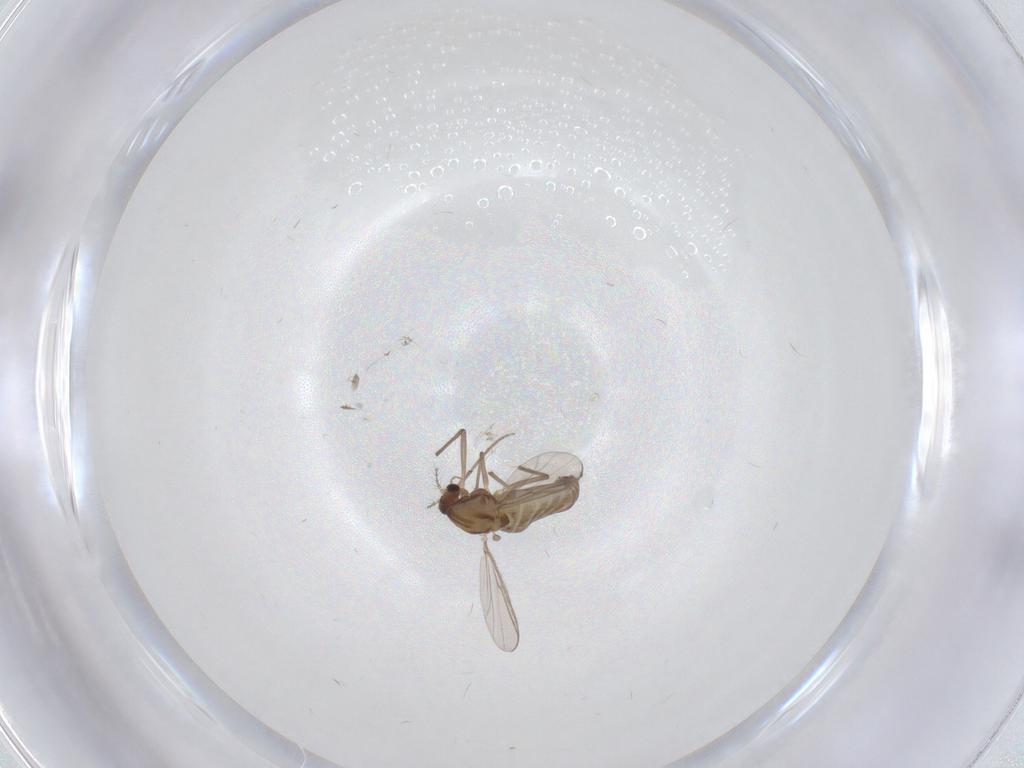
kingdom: Animalia
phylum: Arthropoda
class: Insecta
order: Diptera
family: Chironomidae
